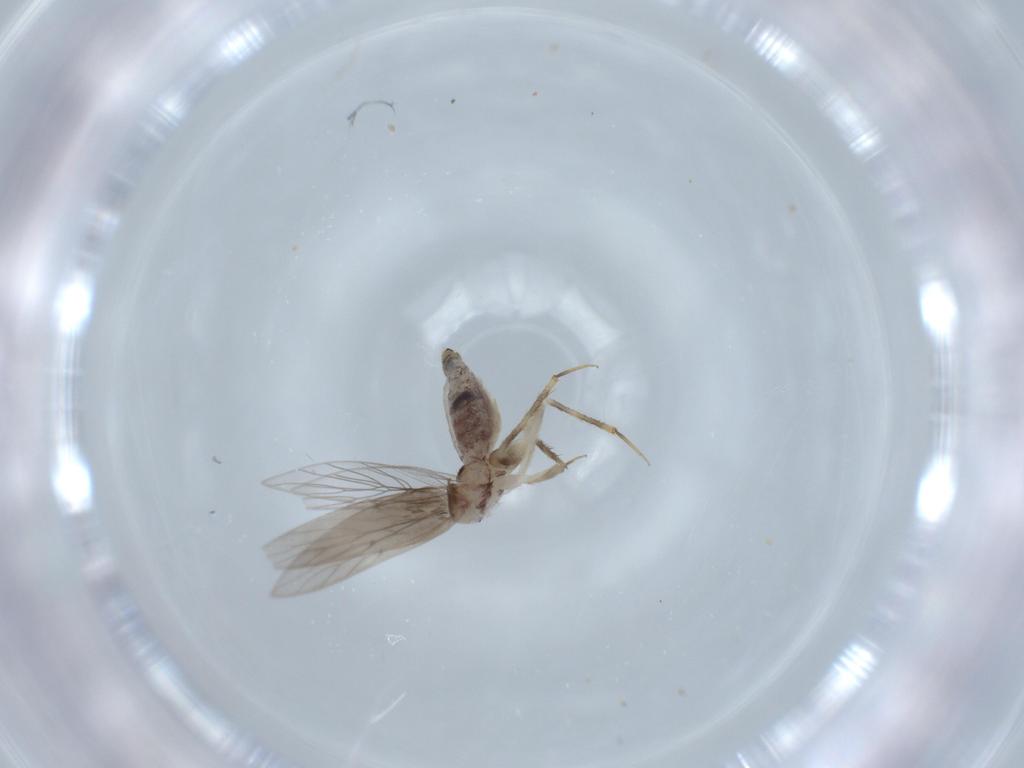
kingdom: Animalia
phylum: Arthropoda
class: Insecta
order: Psocodea
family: Lepidopsocidae
